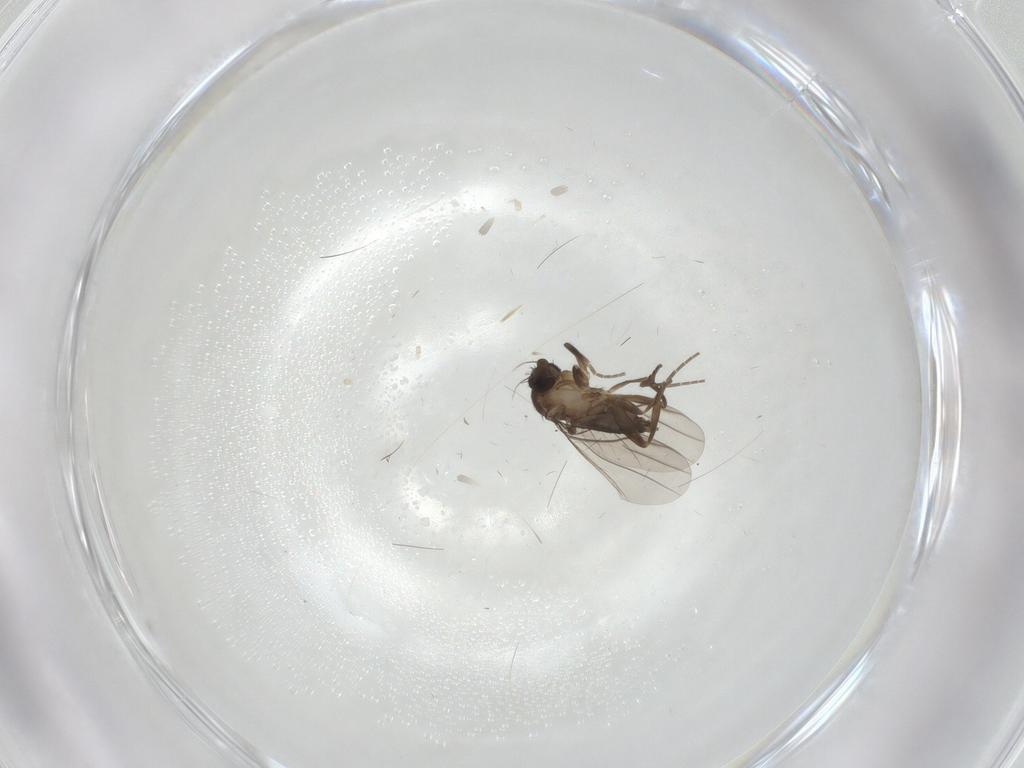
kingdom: Animalia
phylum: Arthropoda
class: Insecta
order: Diptera
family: Phoridae
